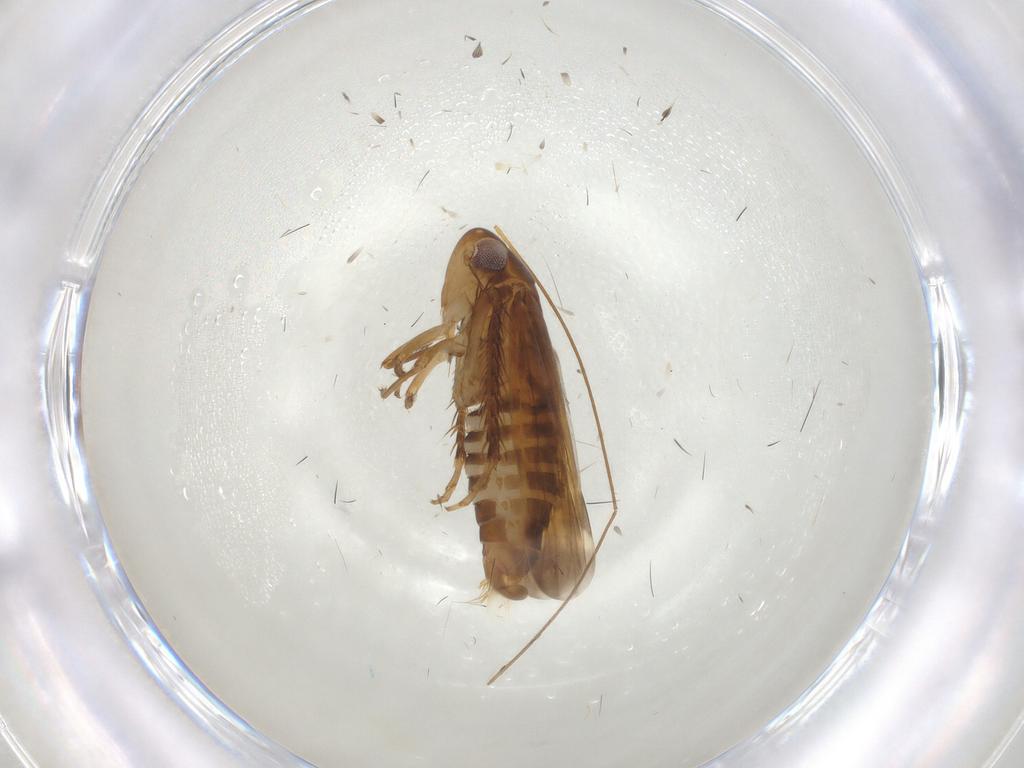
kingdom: Animalia
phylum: Arthropoda
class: Insecta
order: Hemiptera
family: Cicadellidae
